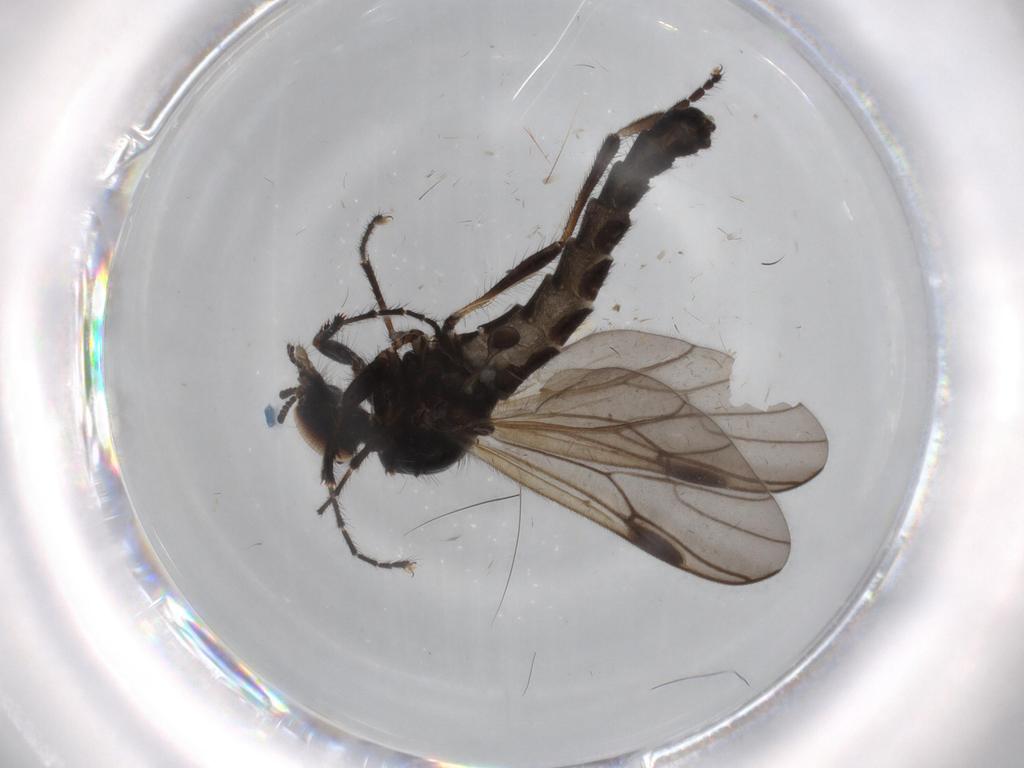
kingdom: Animalia
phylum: Arthropoda
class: Insecta
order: Diptera
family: Sciaridae
